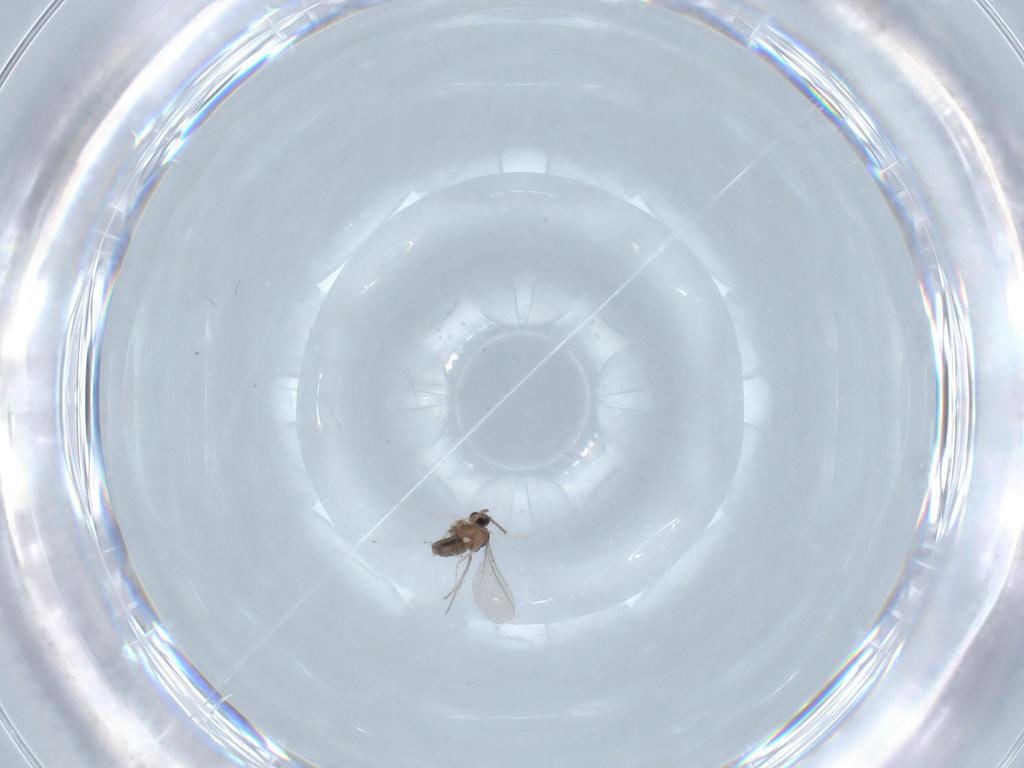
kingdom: Animalia
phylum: Arthropoda
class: Insecta
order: Diptera
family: Cecidomyiidae
